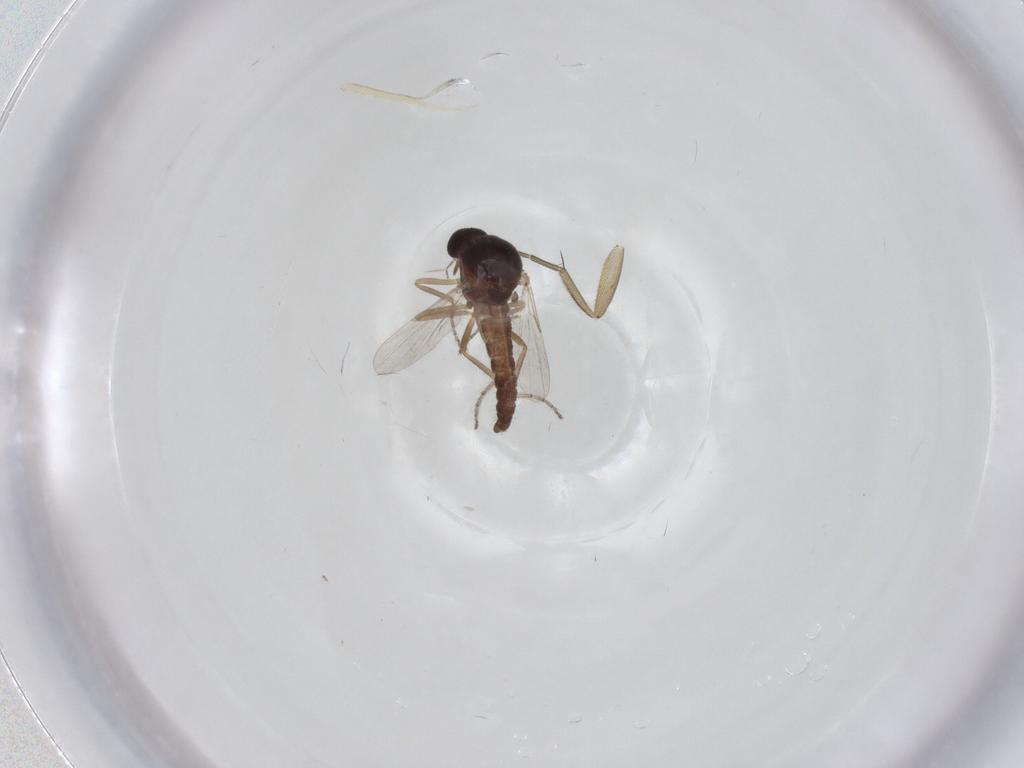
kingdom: Animalia
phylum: Arthropoda
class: Insecta
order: Diptera
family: Ceratopogonidae
